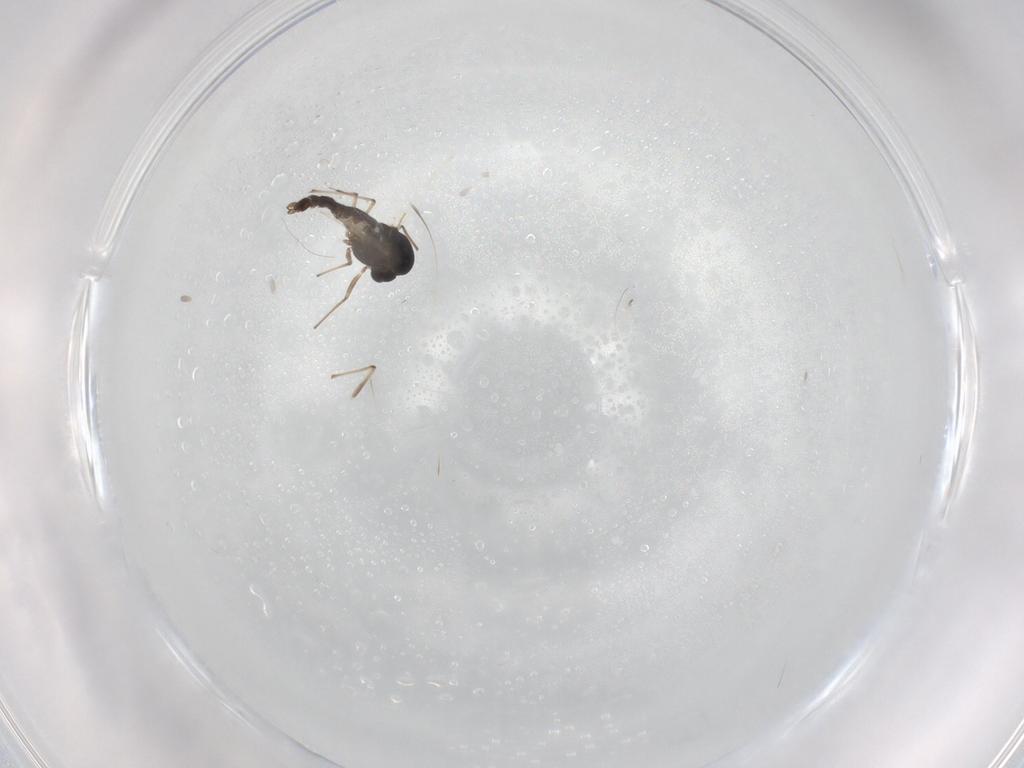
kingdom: Animalia
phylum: Arthropoda
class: Insecta
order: Diptera
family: Chironomidae
